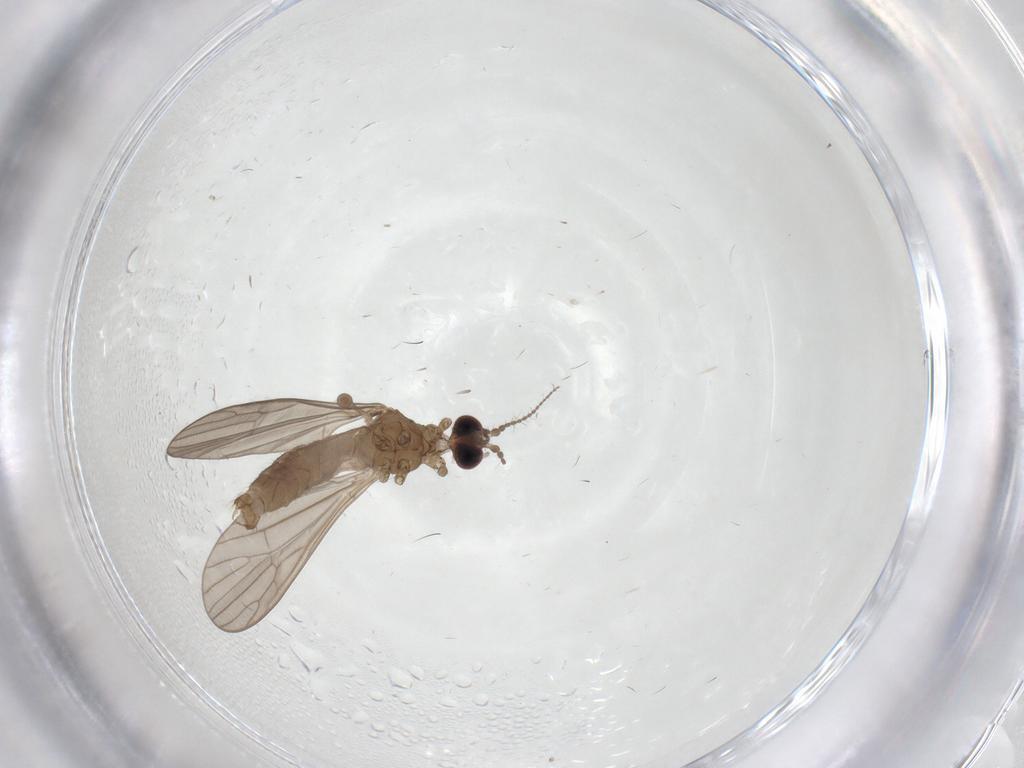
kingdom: Animalia
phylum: Arthropoda
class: Insecta
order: Diptera
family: Limoniidae
